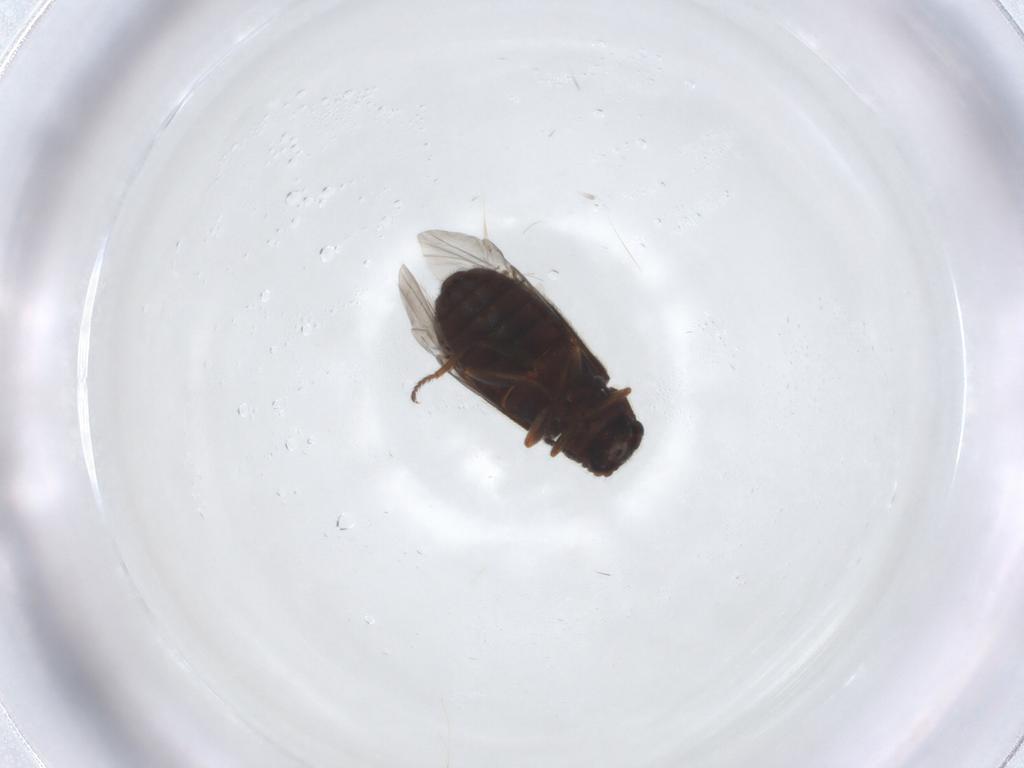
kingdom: Animalia
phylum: Arthropoda
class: Insecta
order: Coleoptera
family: Melyridae
